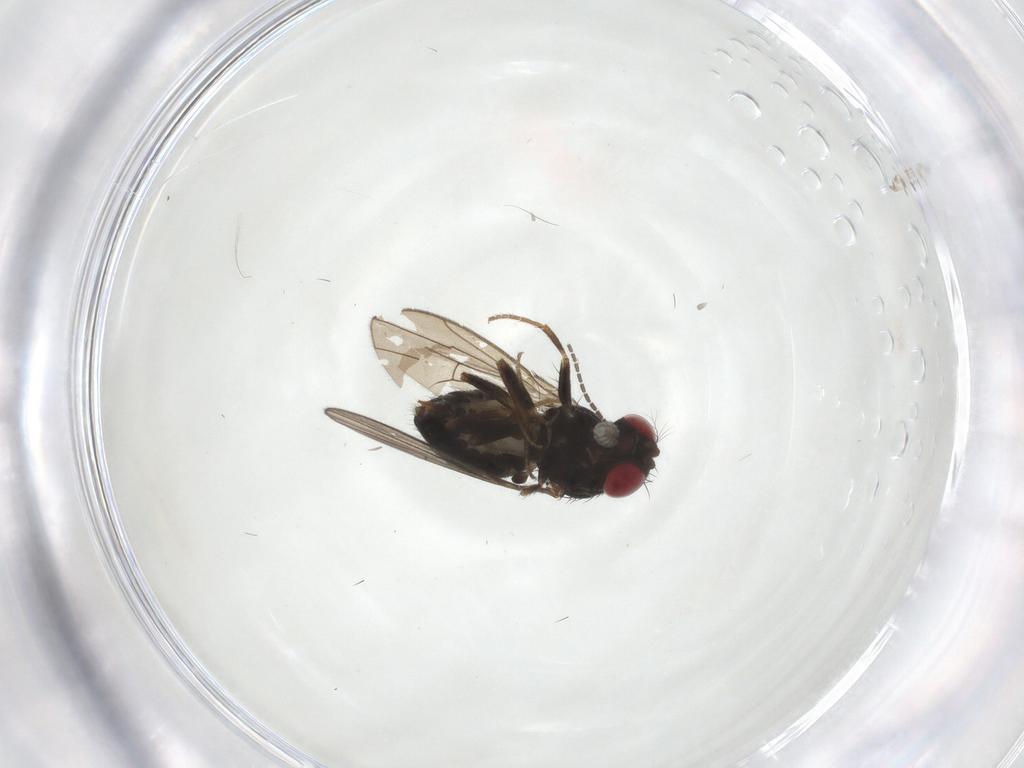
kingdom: Animalia
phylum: Arthropoda
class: Insecta
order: Diptera
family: Drosophilidae
